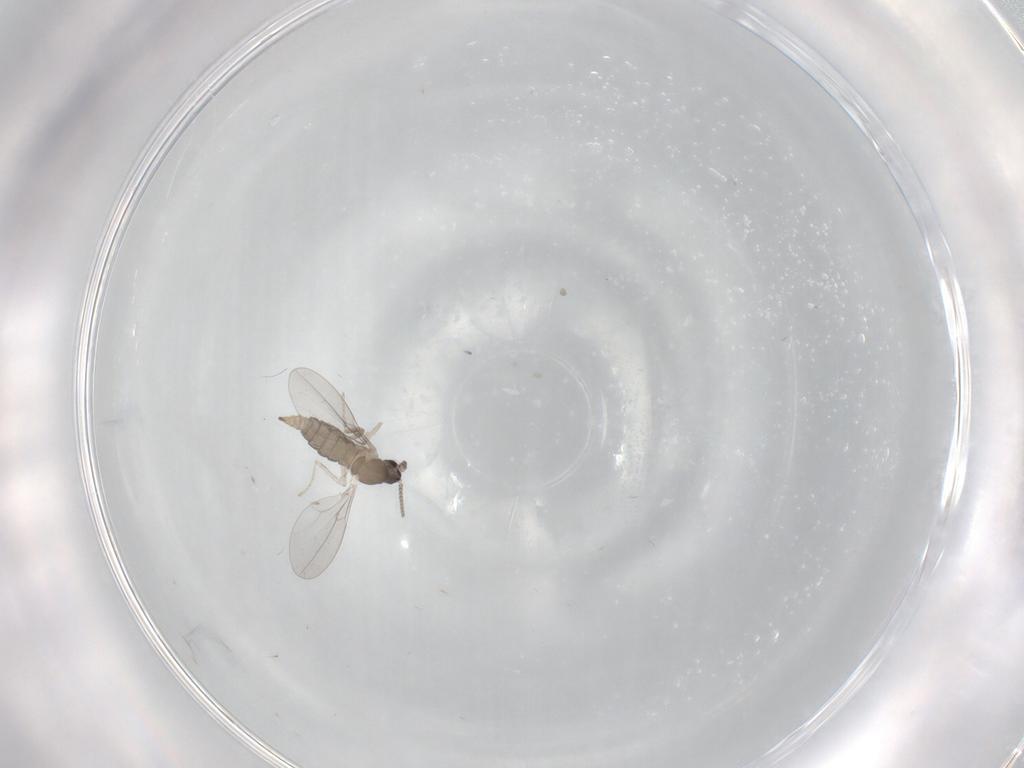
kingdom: Animalia
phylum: Arthropoda
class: Insecta
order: Diptera
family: Cecidomyiidae
